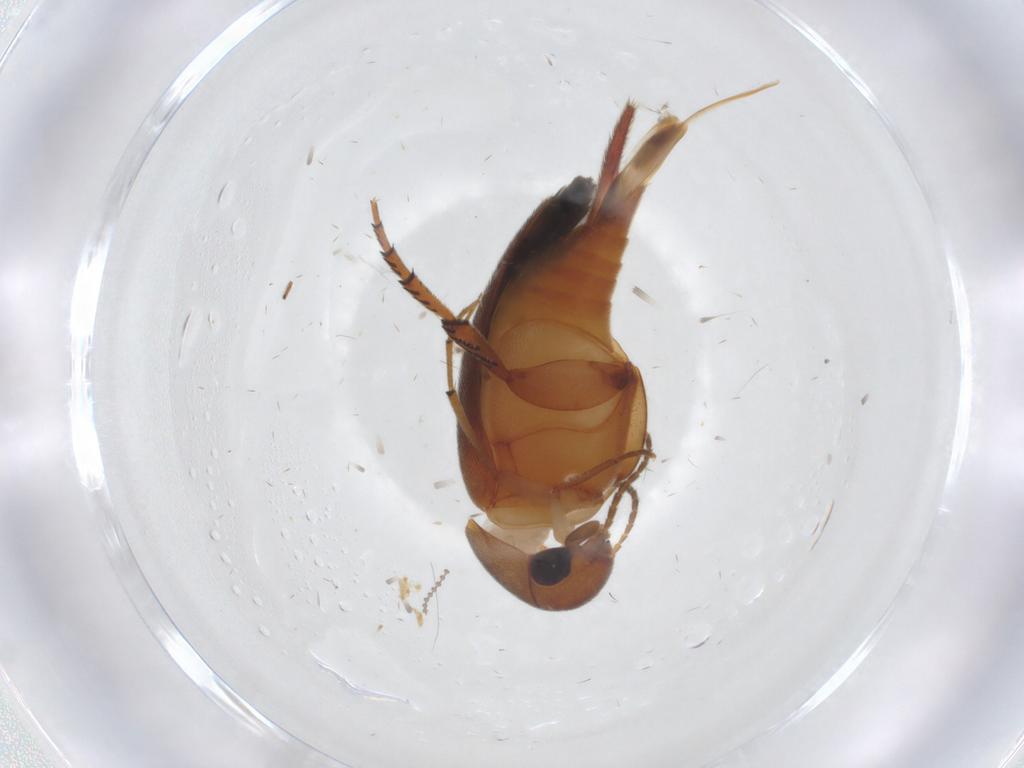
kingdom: Animalia
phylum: Arthropoda
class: Insecta
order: Coleoptera
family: Mordellidae
